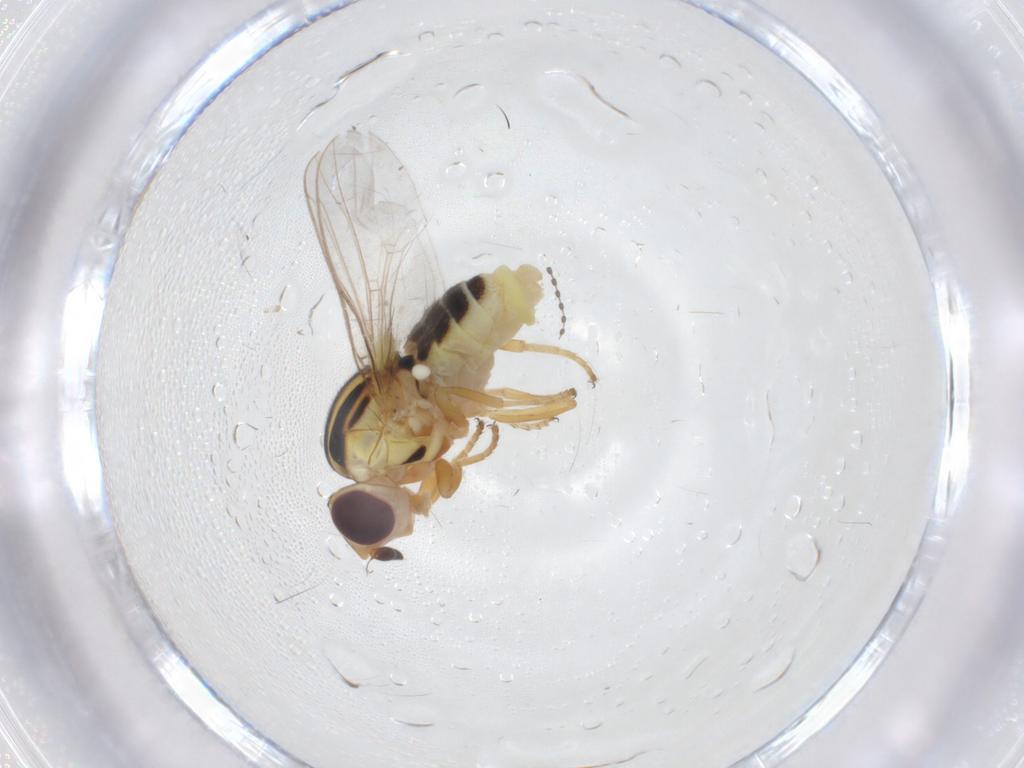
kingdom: Animalia
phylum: Arthropoda
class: Insecta
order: Diptera
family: Chloropidae
